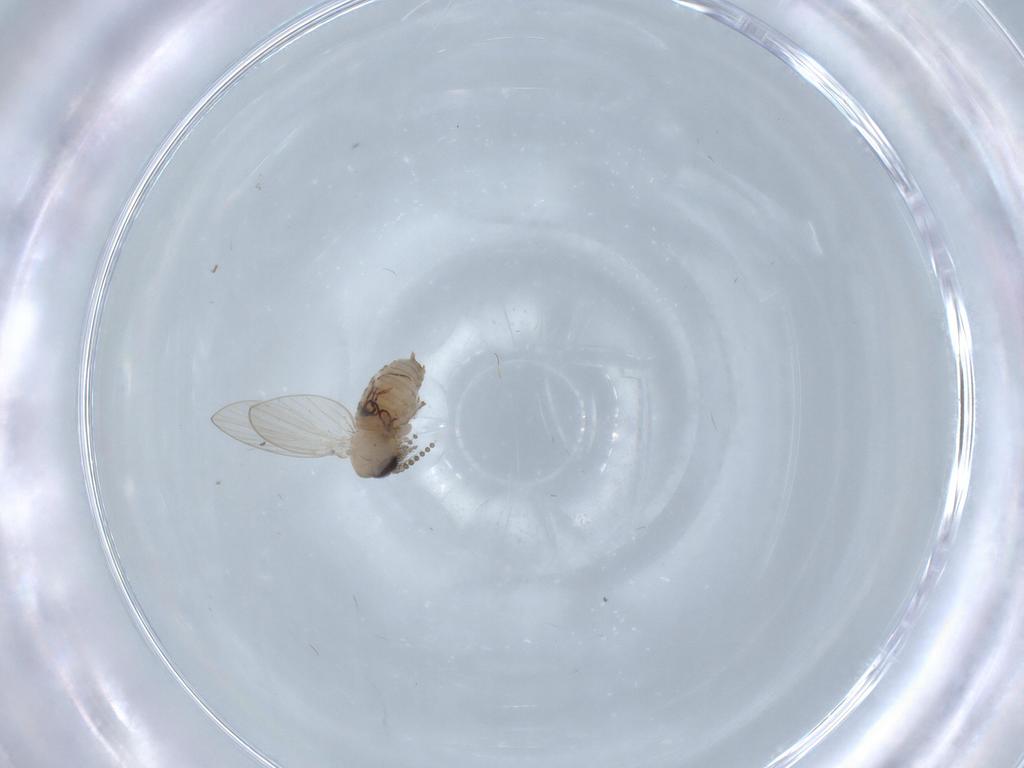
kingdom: Animalia
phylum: Arthropoda
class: Insecta
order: Diptera
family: Chironomidae
